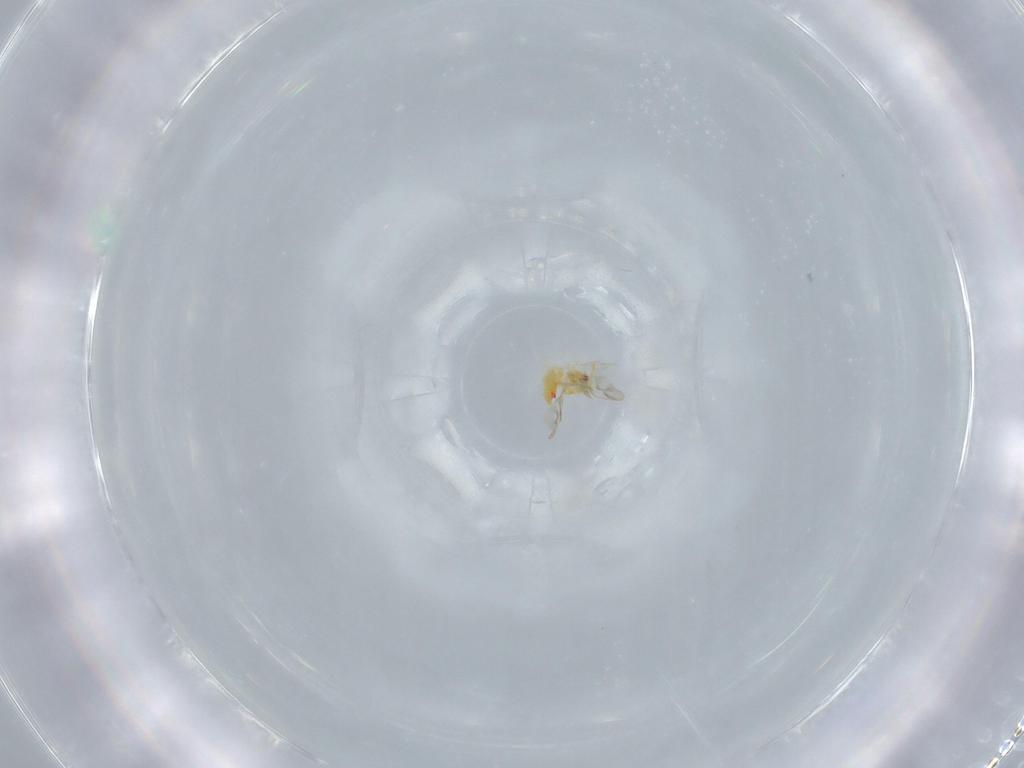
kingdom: Animalia
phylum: Arthropoda
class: Insecta
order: Hemiptera
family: Aleyrodidae
